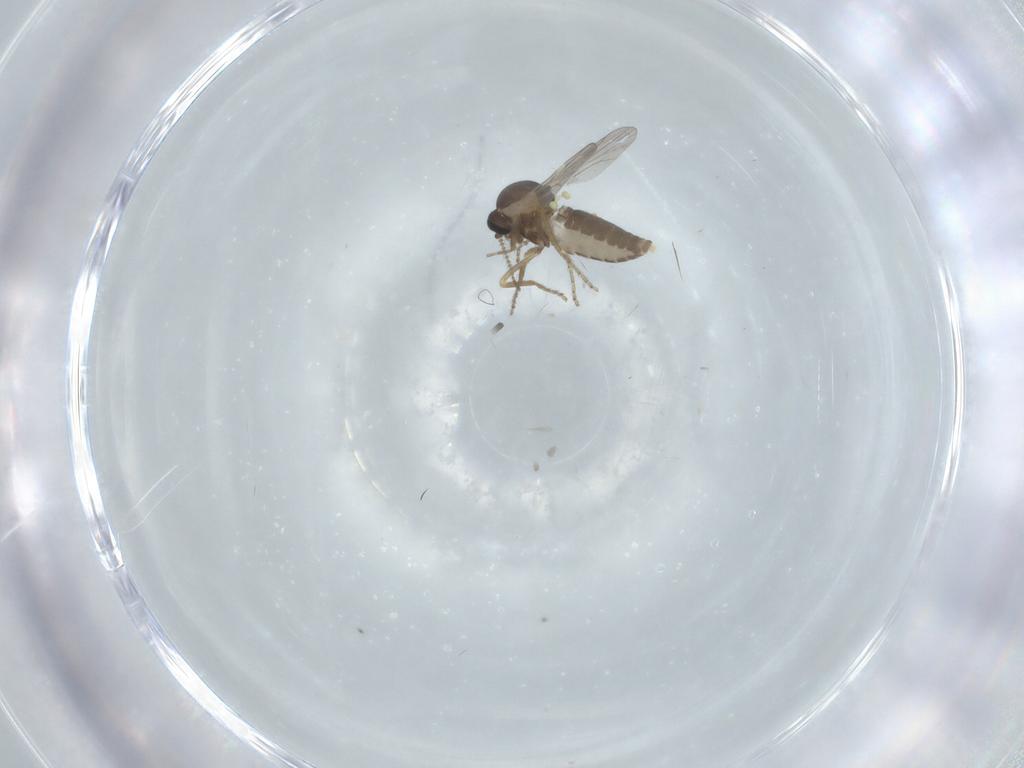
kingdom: Animalia
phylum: Arthropoda
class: Insecta
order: Diptera
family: Ceratopogonidae
